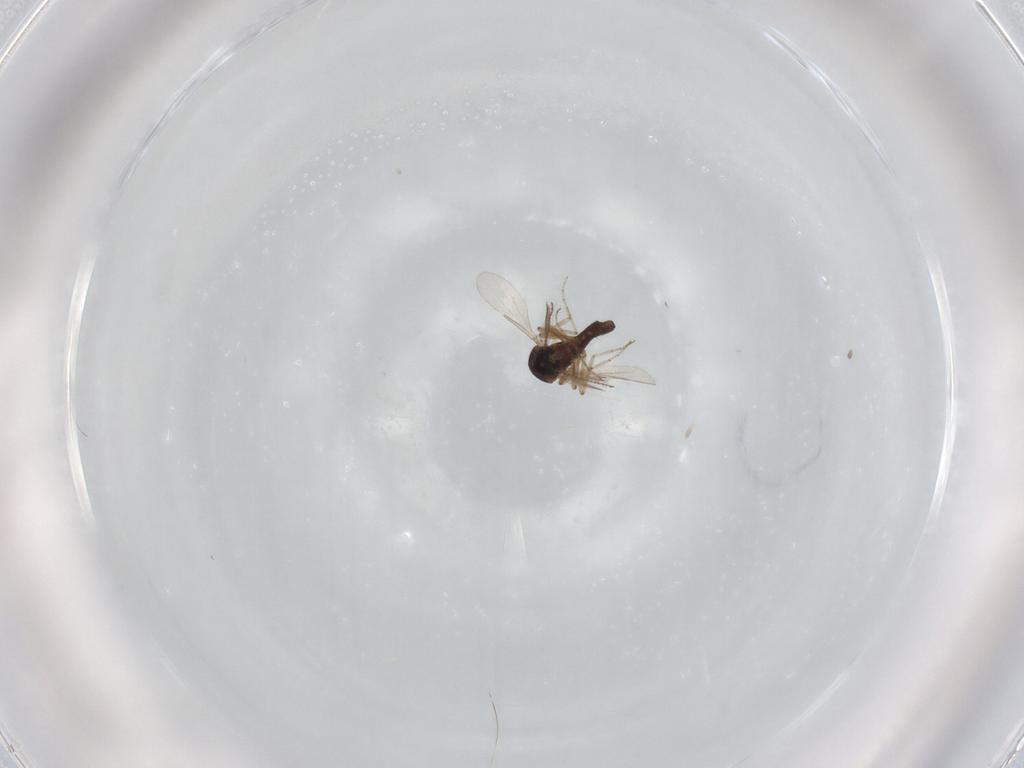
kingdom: Animalia
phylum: Arthropoda
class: Insecta
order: Diptera
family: Ceratopogonidae
